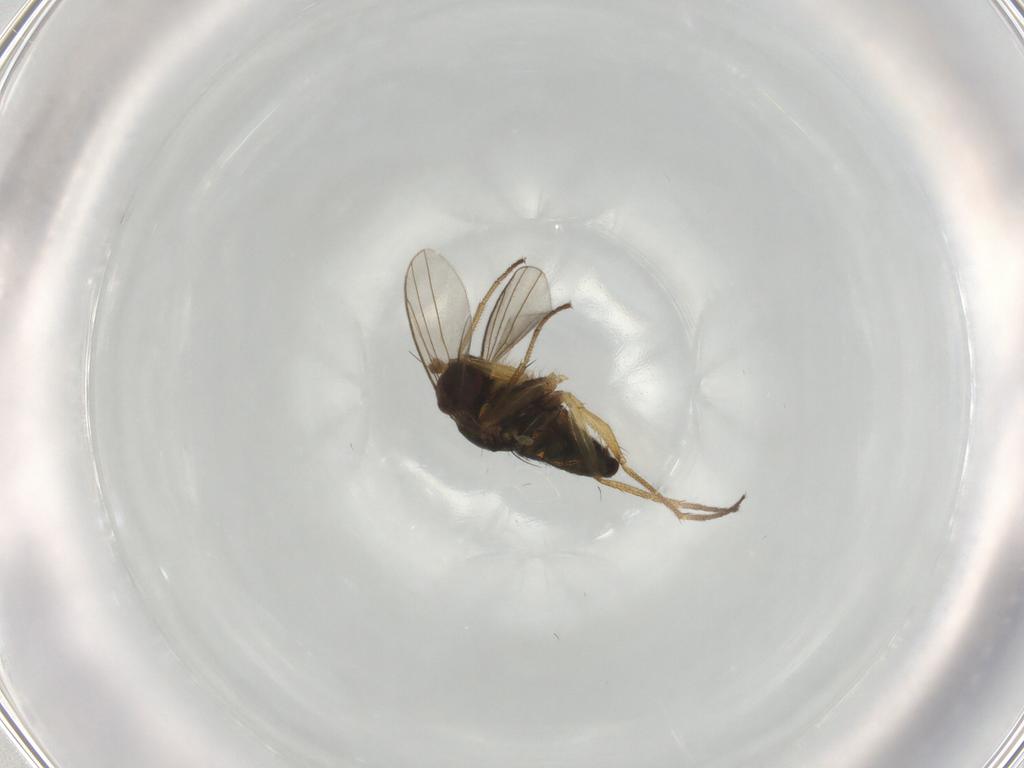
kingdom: Animalia
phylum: Arthropoda
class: Insecta
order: Diptera
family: Dolichopodidae
